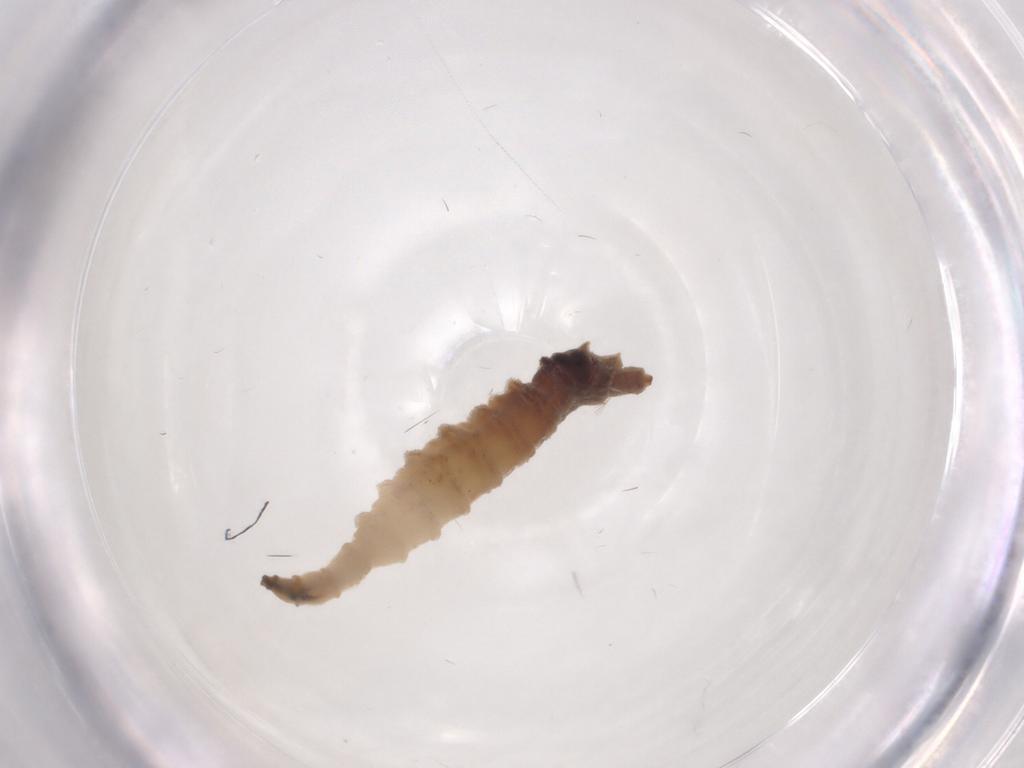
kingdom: Animalia
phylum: Arthropoda
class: Insecta
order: Diptera
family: Drosophilidae
